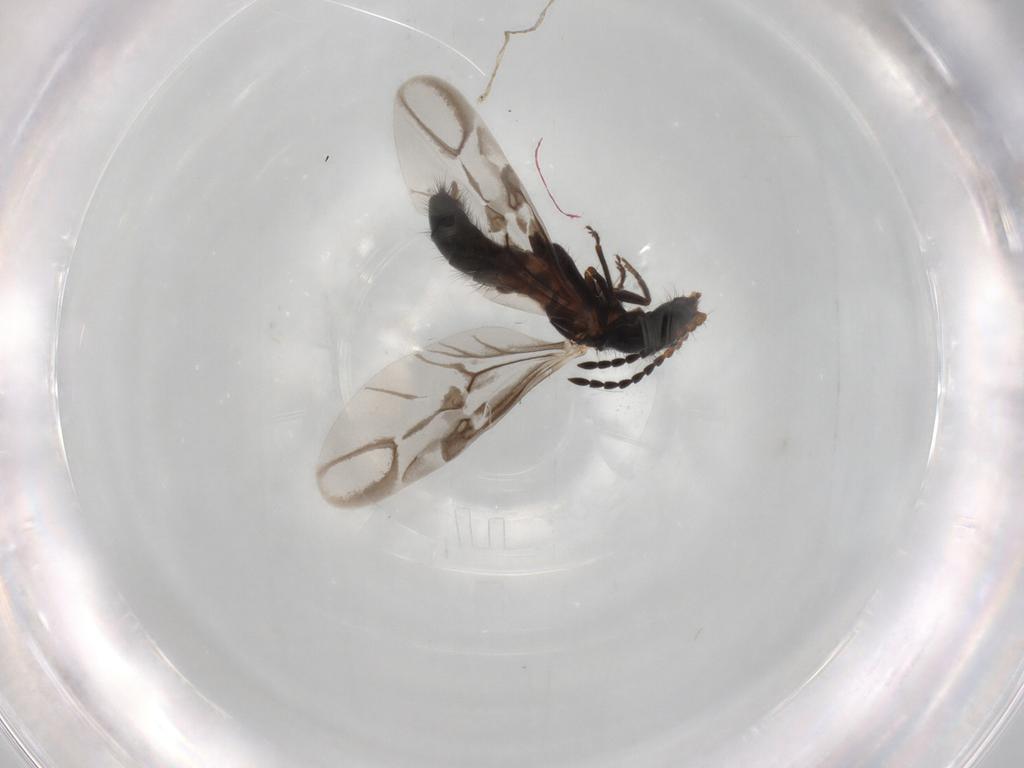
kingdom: Animalia
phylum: Arthropoda
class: Insecta
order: Coleoptera
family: Melyridae
